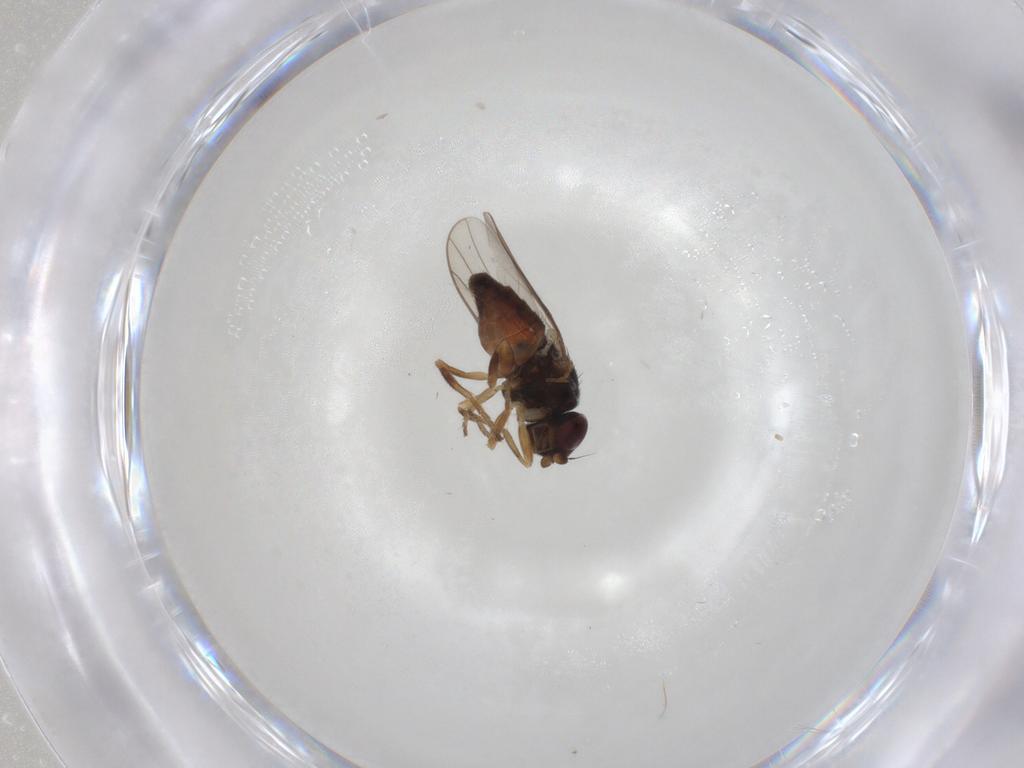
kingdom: Animalia
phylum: Arthropoda
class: Insecta
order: Diptera
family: Chloropidae
